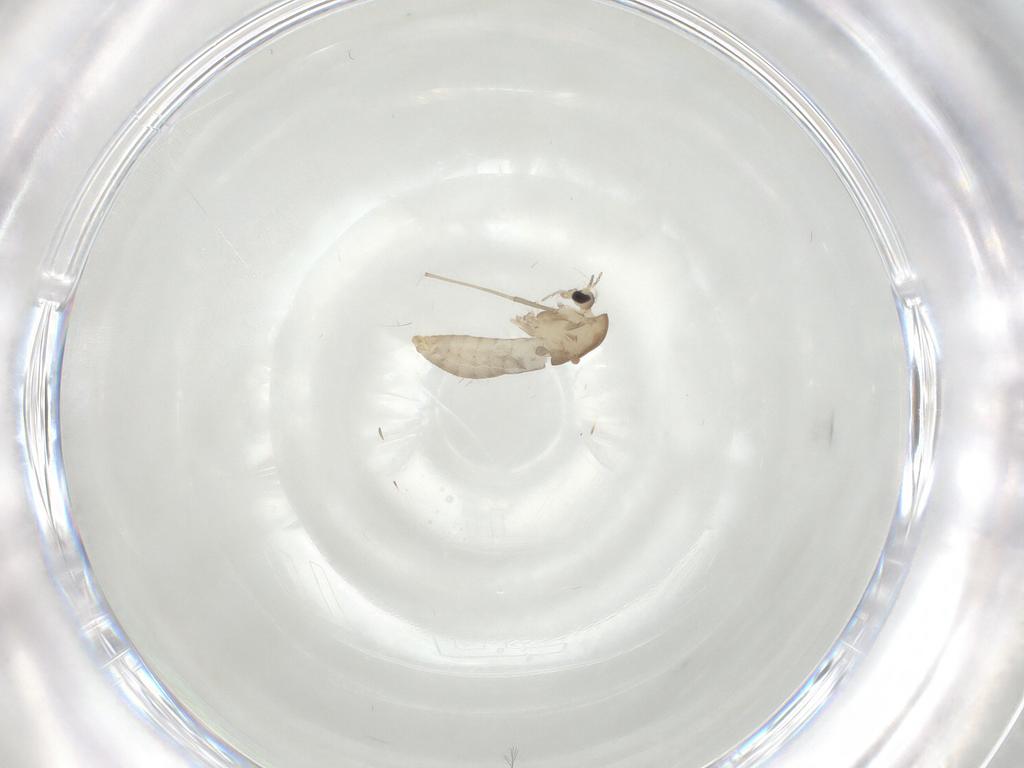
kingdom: Animalia
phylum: Arthropoda
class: Insecta
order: Diptera
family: Chironomidae
